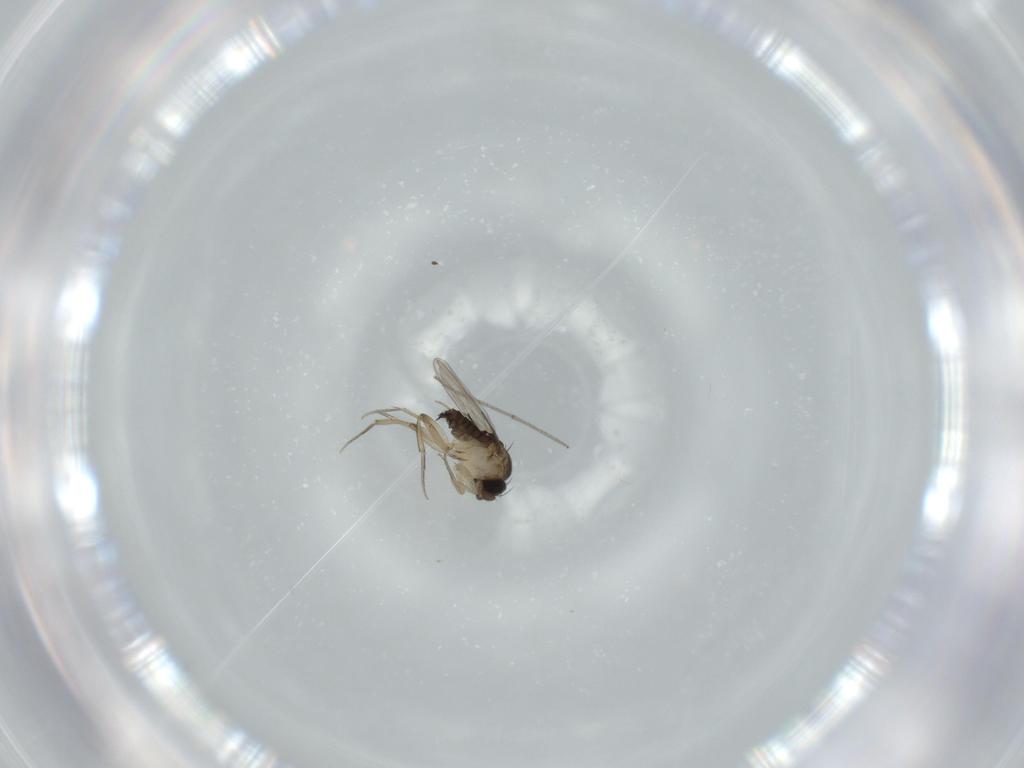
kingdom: Animalia
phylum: Arthropoda
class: Insecta
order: Diptera
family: Phoridae
